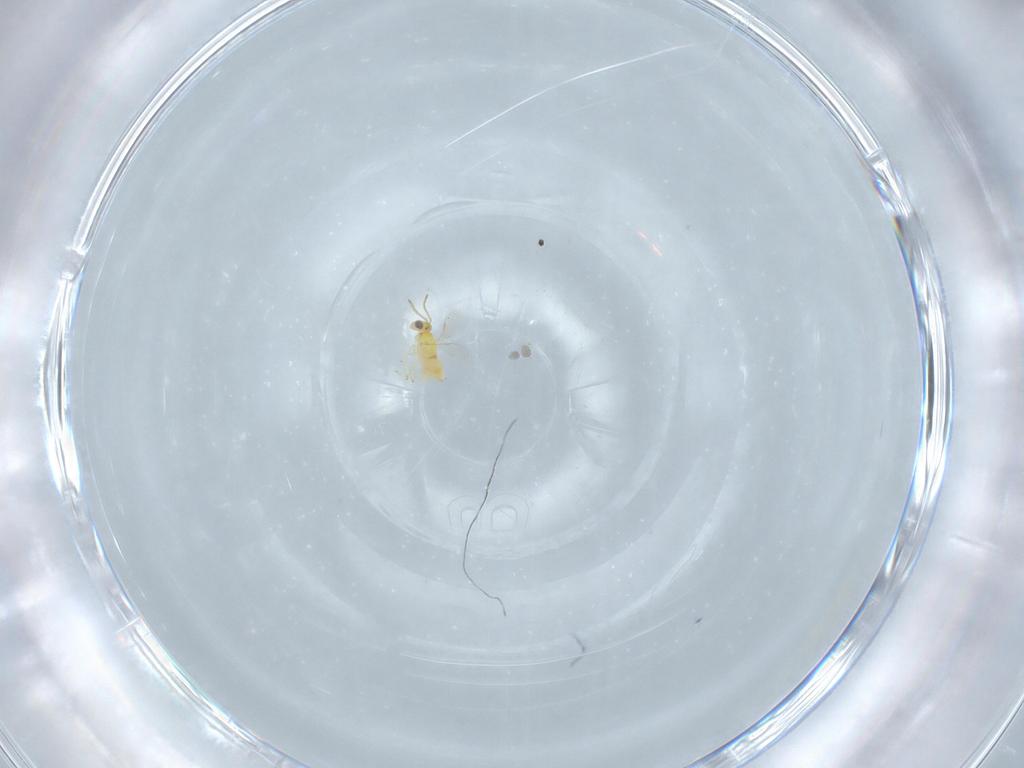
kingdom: Animalia
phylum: Arthropoda
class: Insecta
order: Hymenoptera
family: Aphelinidae
